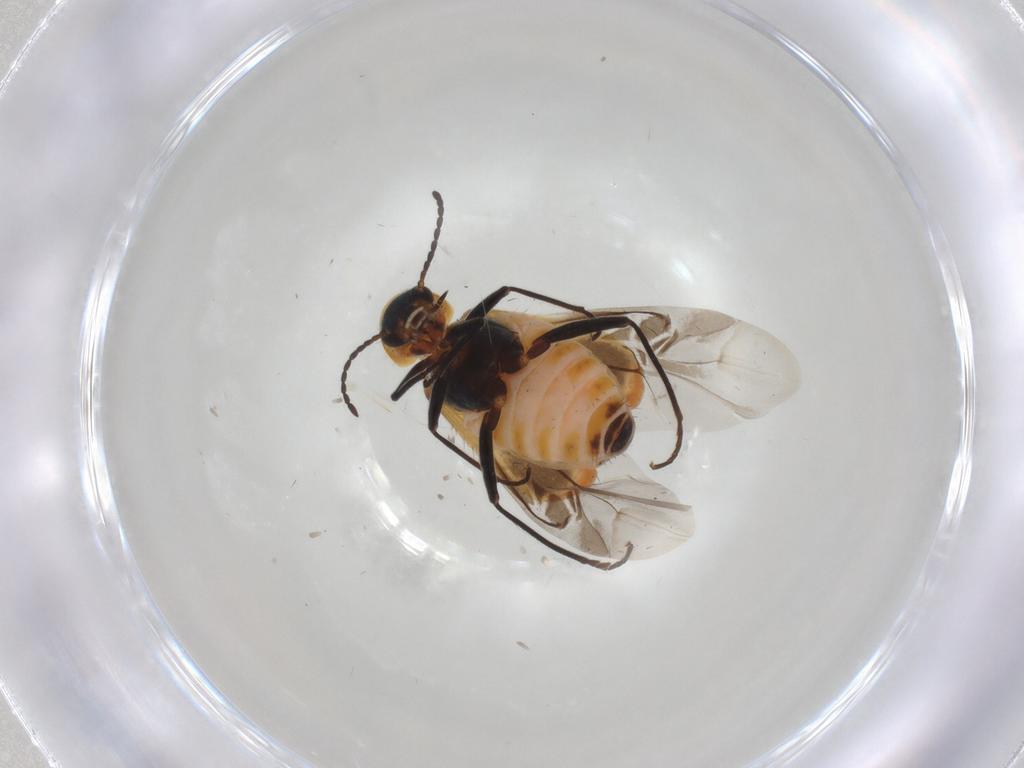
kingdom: Animalia
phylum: Arthropoda
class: Insecta
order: Coleoptera
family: Melyridae
